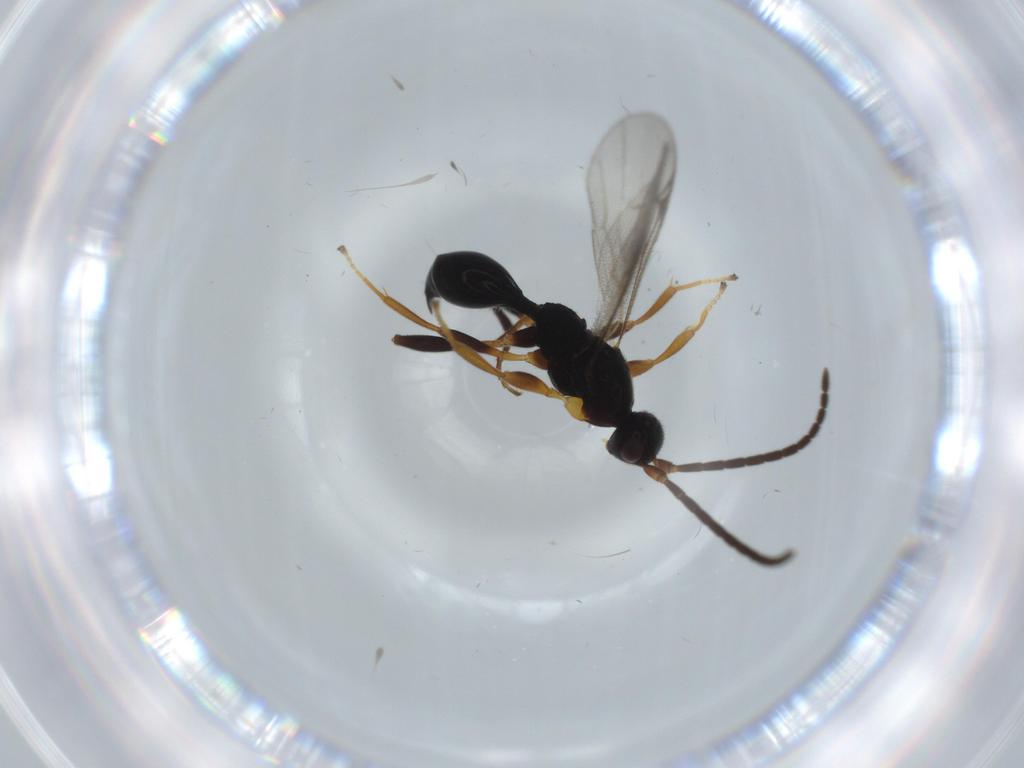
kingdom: Animalia
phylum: Arthropoda
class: Insecta
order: Hymenoptera
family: Proctotrupidae
